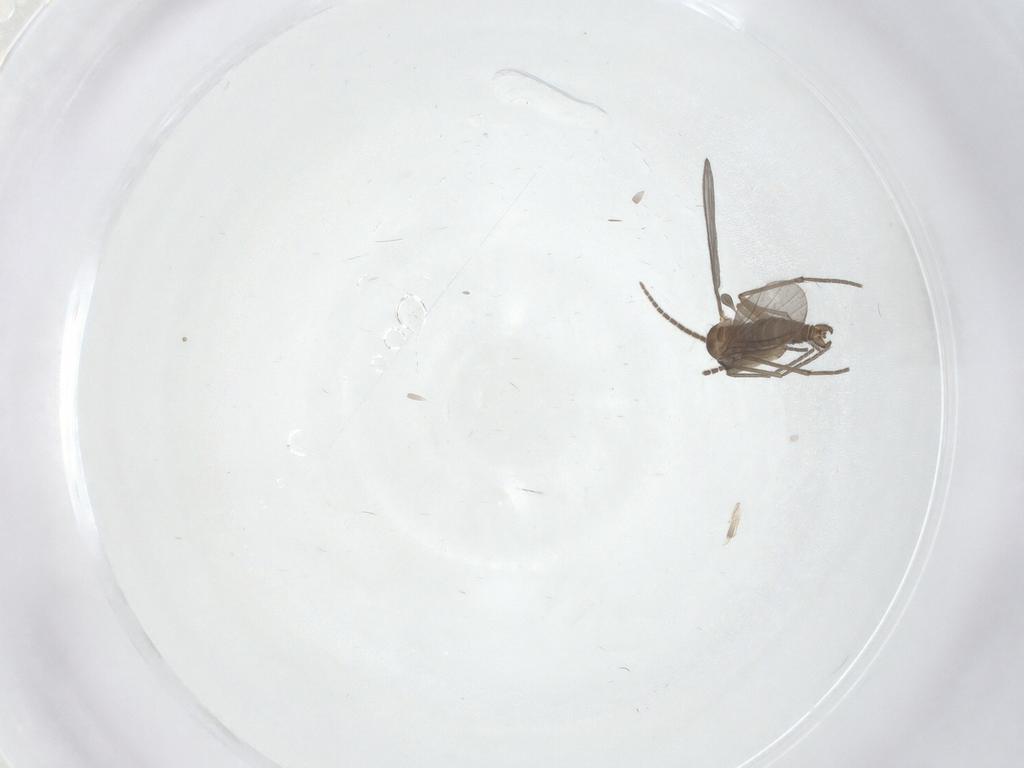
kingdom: Animalia
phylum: Arthropoda
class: Insecta
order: Diptera
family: Sciaridae
